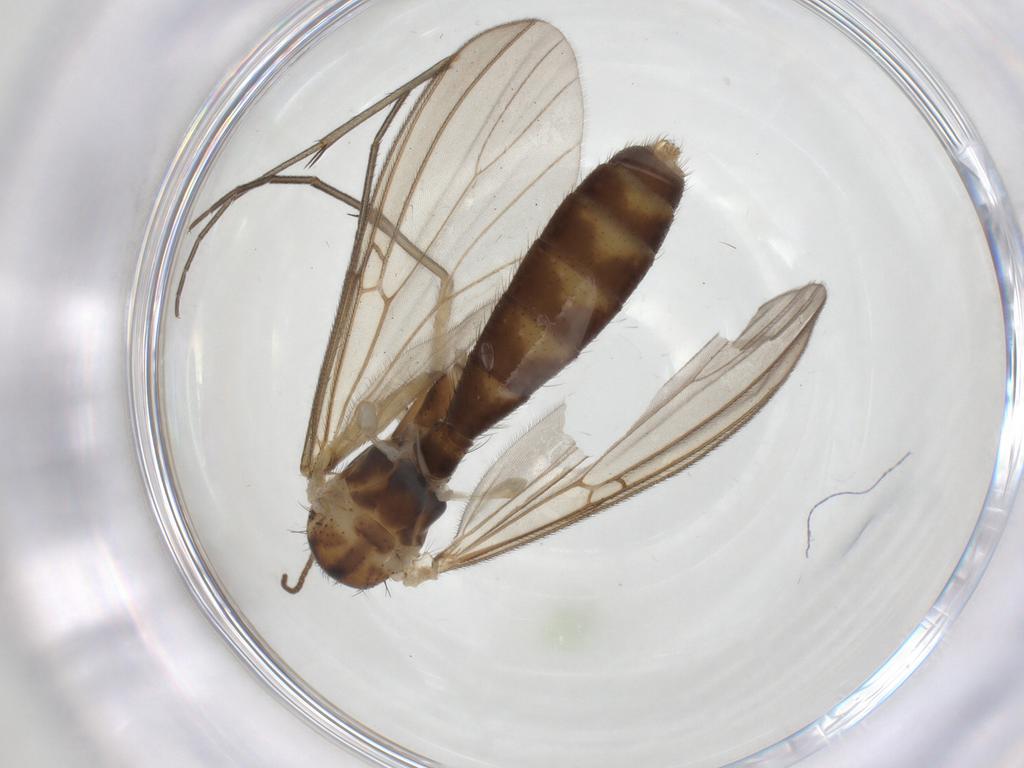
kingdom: Animalia
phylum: Arthropoda
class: Insecta
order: Diptera
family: Mycetophilidae
